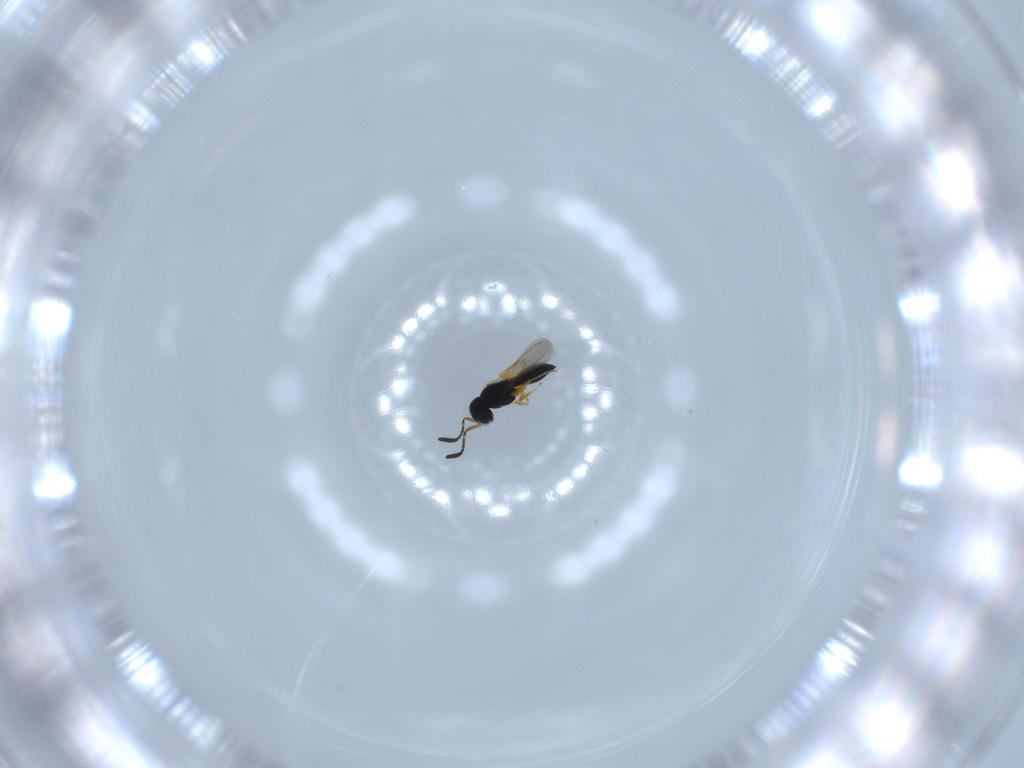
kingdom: Animalia
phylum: Arthropoda
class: Insecta
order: Hymenoptera
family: Scelionidae
